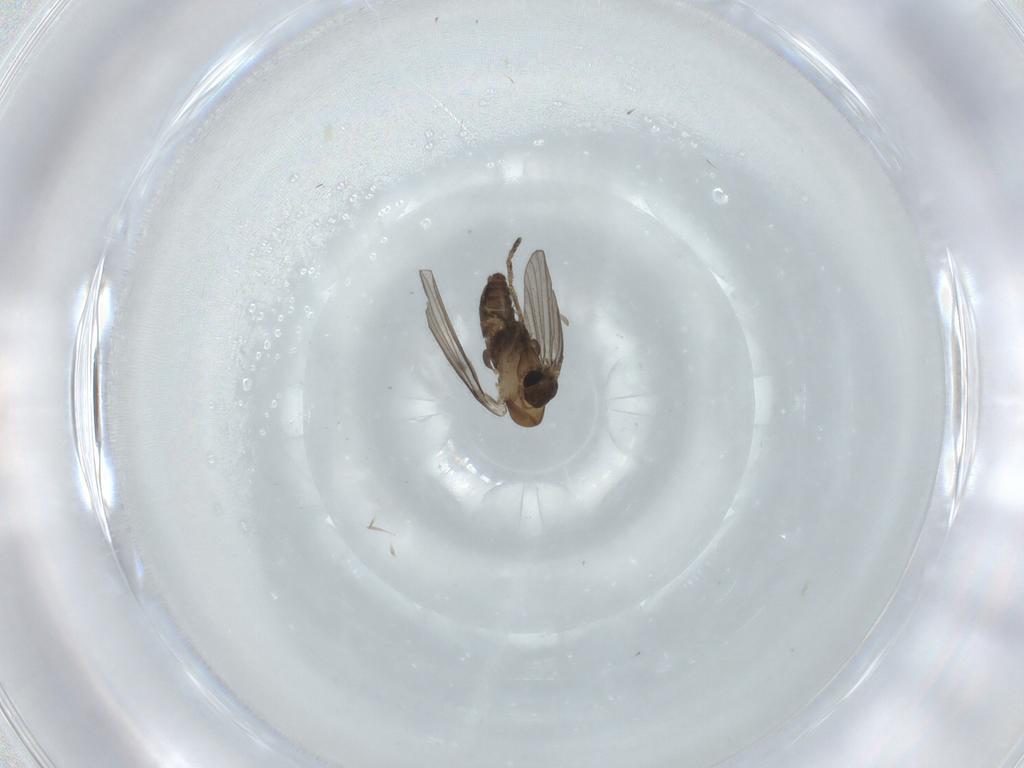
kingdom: Animalia
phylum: Arthropoda
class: Insecta
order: Diptera
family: Psychodidae
